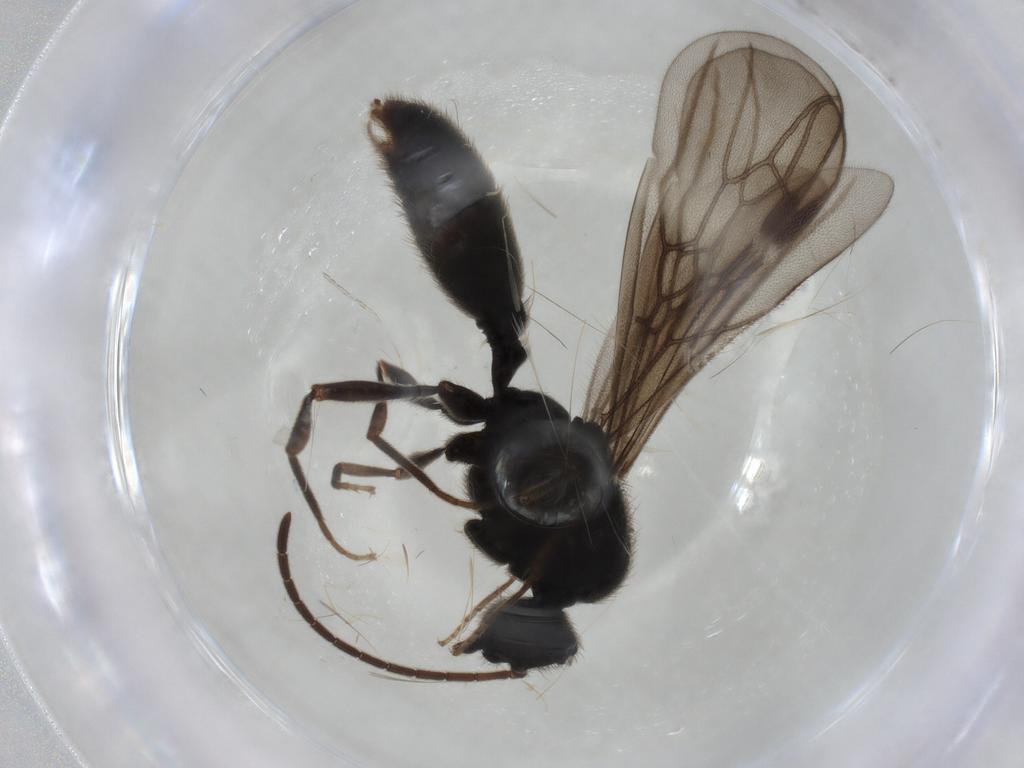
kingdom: Animalia
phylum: Arthropoda
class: Insecta
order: Hymenoptera
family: Formicidae
